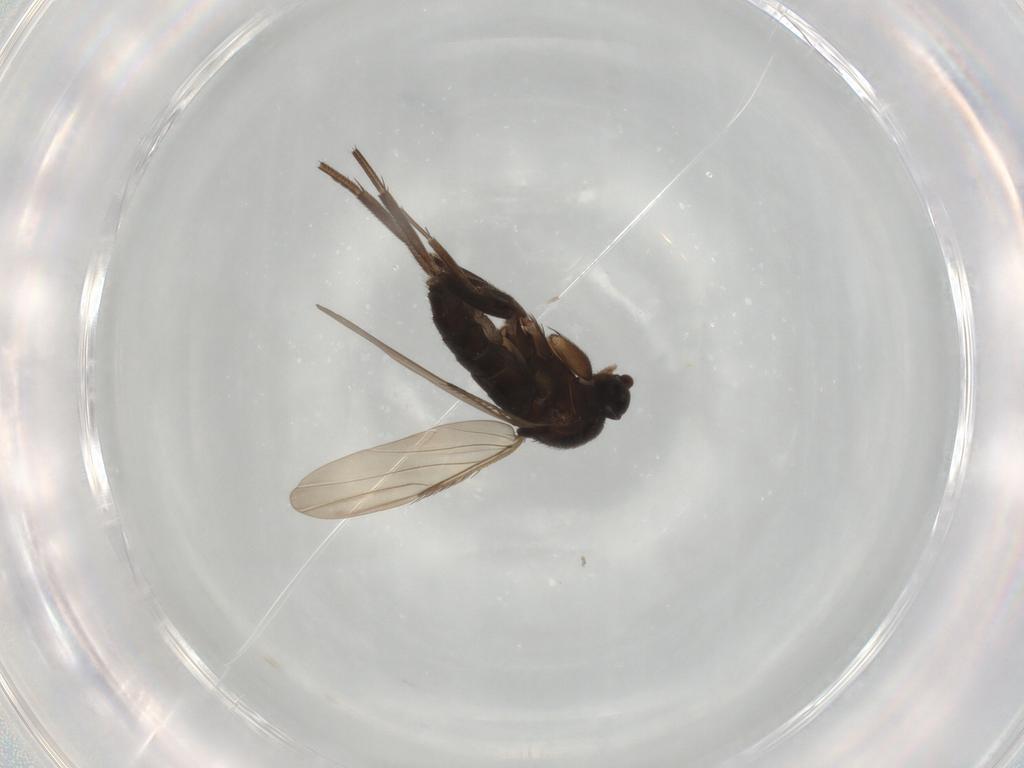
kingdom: Animalia
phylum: Arthropoda
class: Insecta
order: Diptera
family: Phoridae
